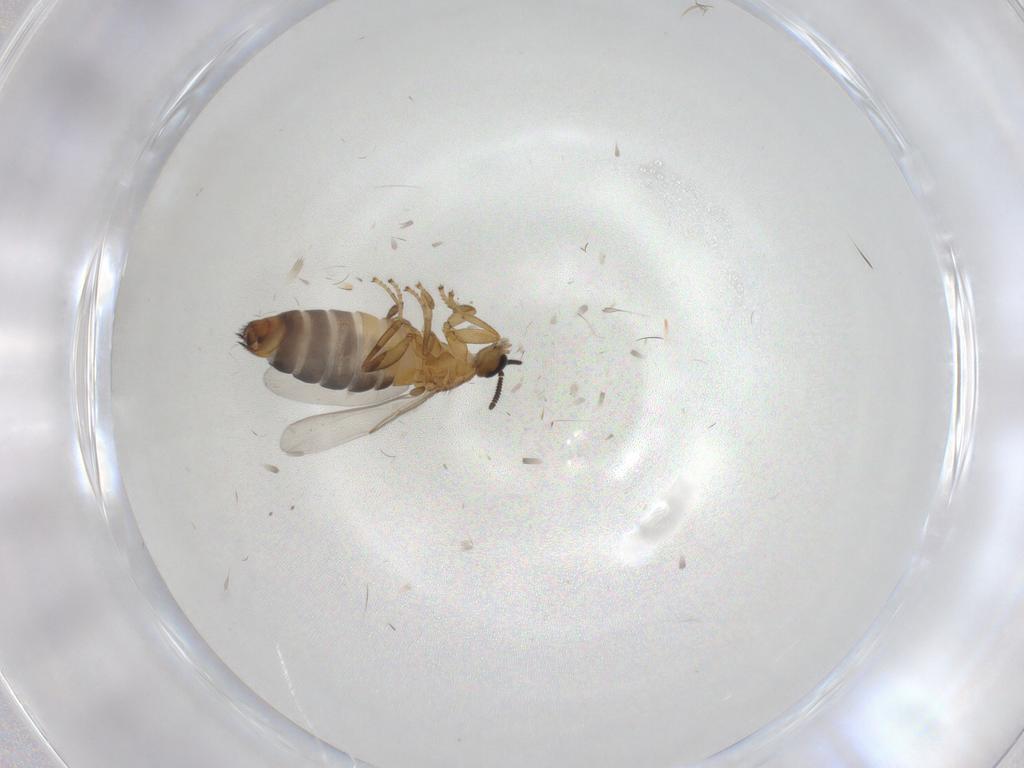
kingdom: Animalia
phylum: Arthropoda
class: Insecta
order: Diptera
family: Scatopsidae
